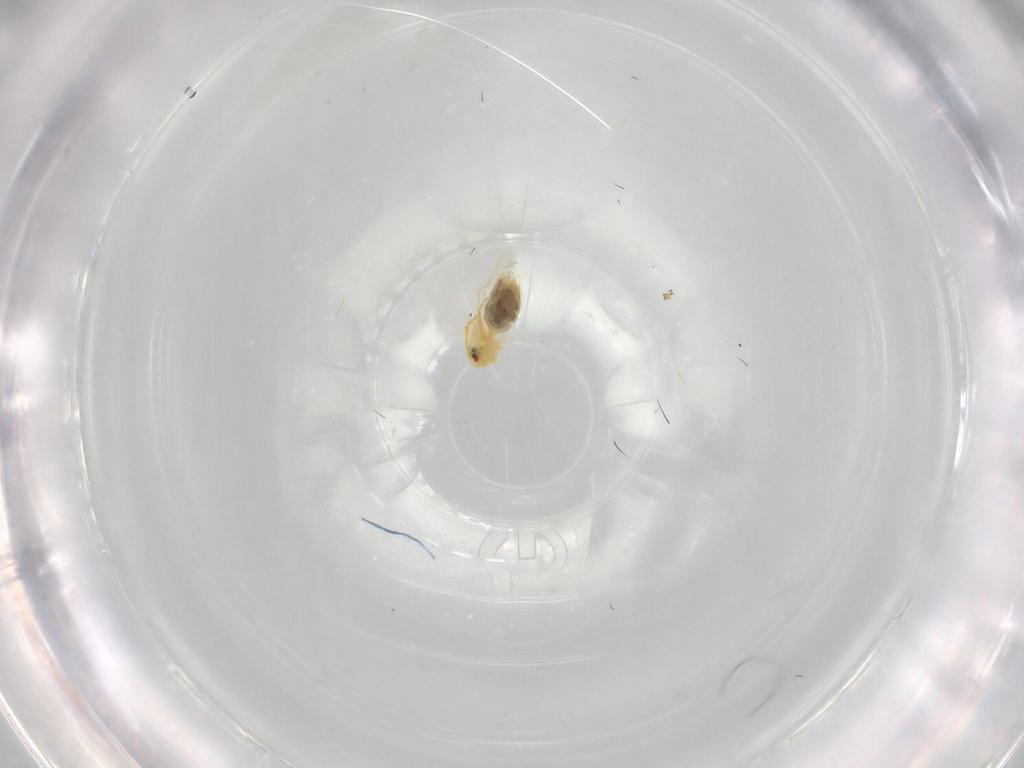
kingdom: Animalia
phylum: Arthropoda
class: Insecta
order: Hemiptera
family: Aleyrodidae
